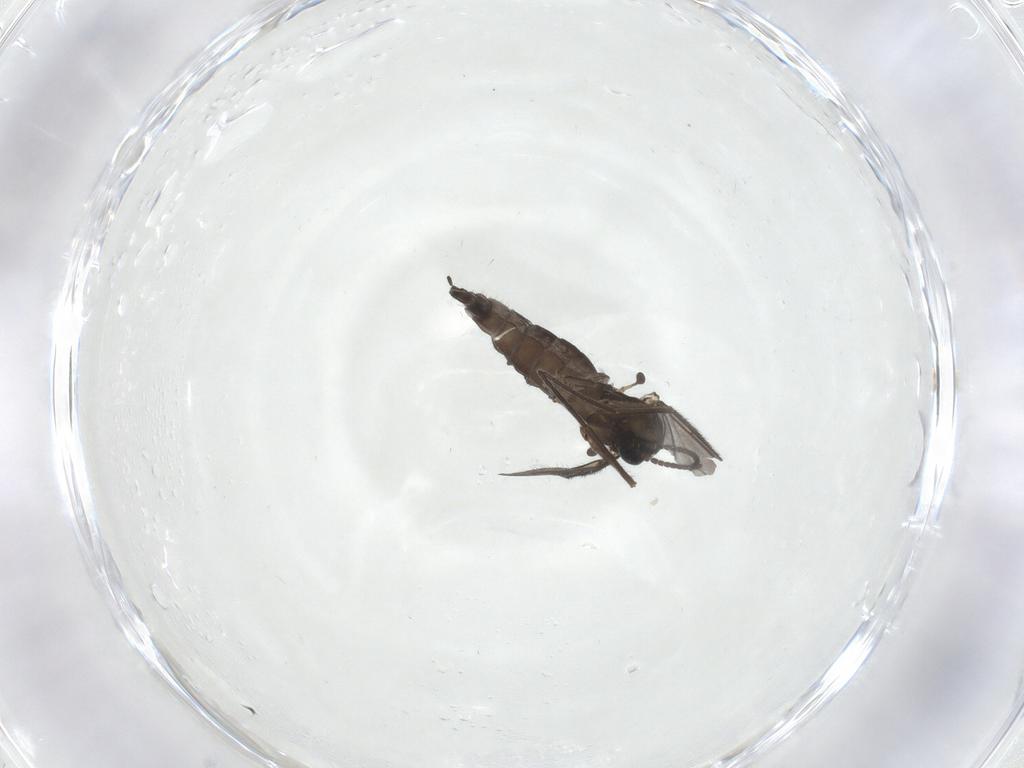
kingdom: Animalia
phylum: Arthropoda
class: Insecta
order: Diptera
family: Sciaridae
